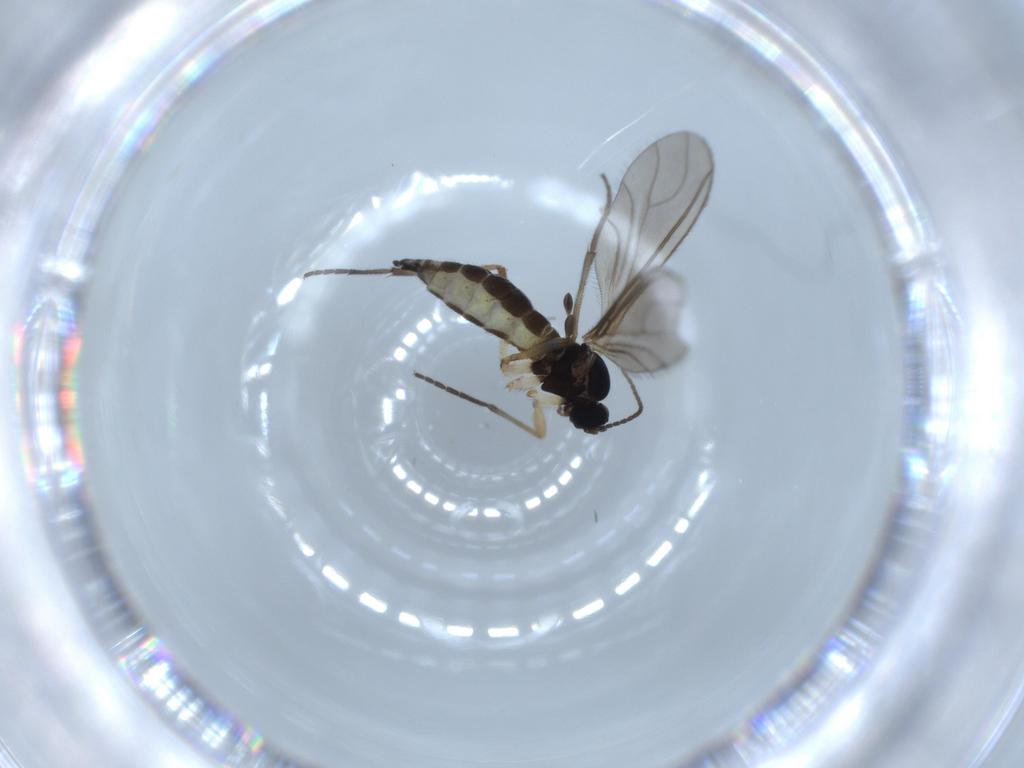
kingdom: Animalia
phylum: Arthropoda
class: Insecta
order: Diptera
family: Sciaridae
